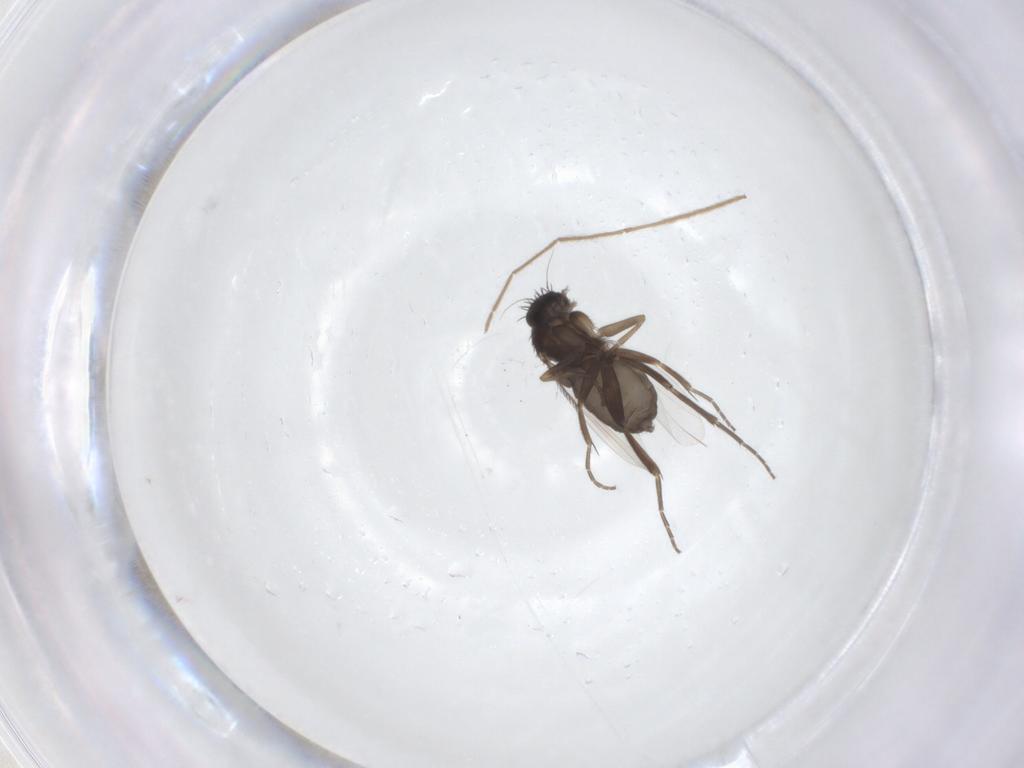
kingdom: Animalia
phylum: Arthropoda
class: Insecta
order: Diptera
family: Phoridae
